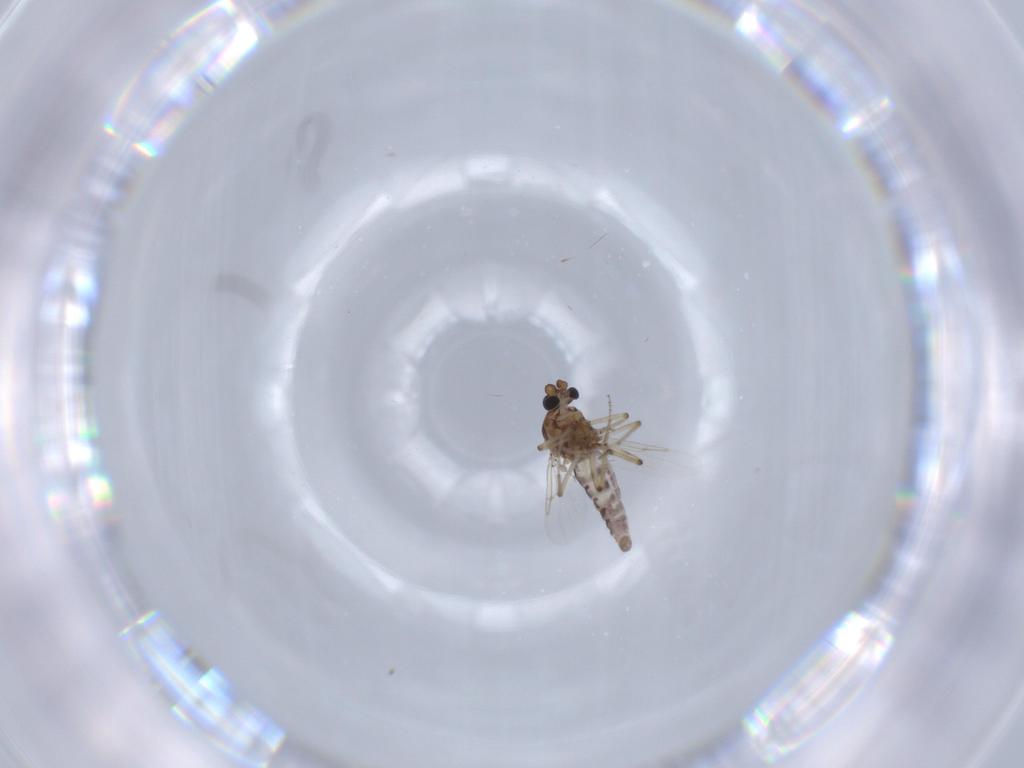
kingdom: Animalia
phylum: Arthropoda
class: Insecta
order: Diptera
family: Ceratopogonidae
